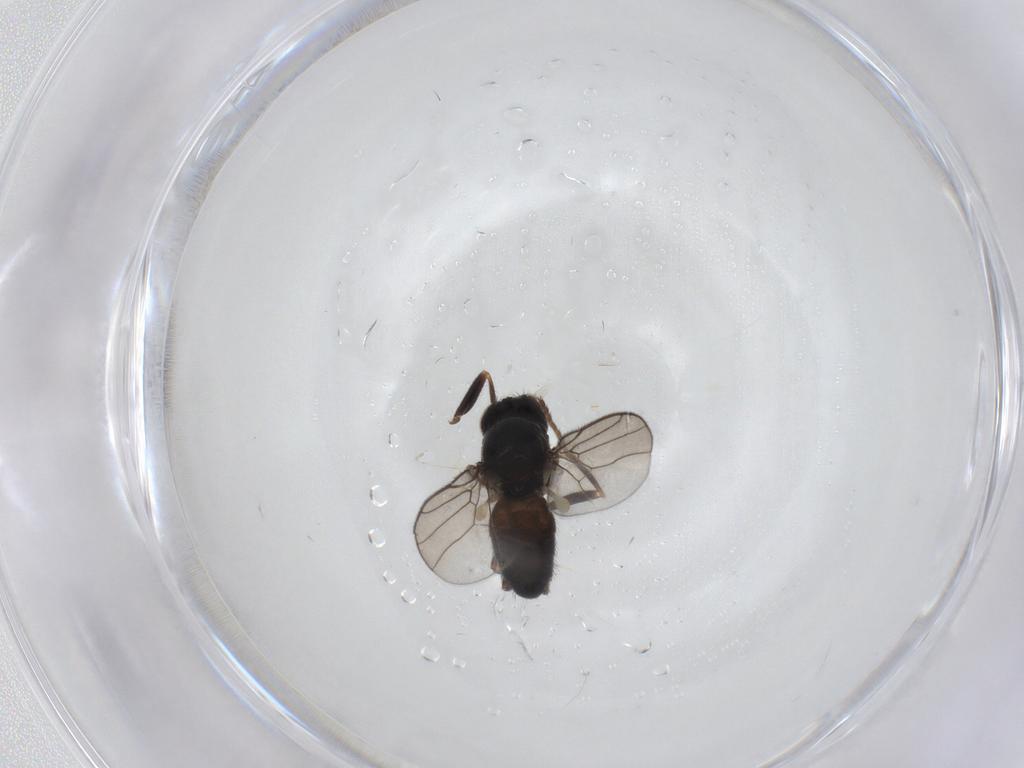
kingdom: Animalia
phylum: Arthropoda
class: Insecta
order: Diptera
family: Chloropidae
